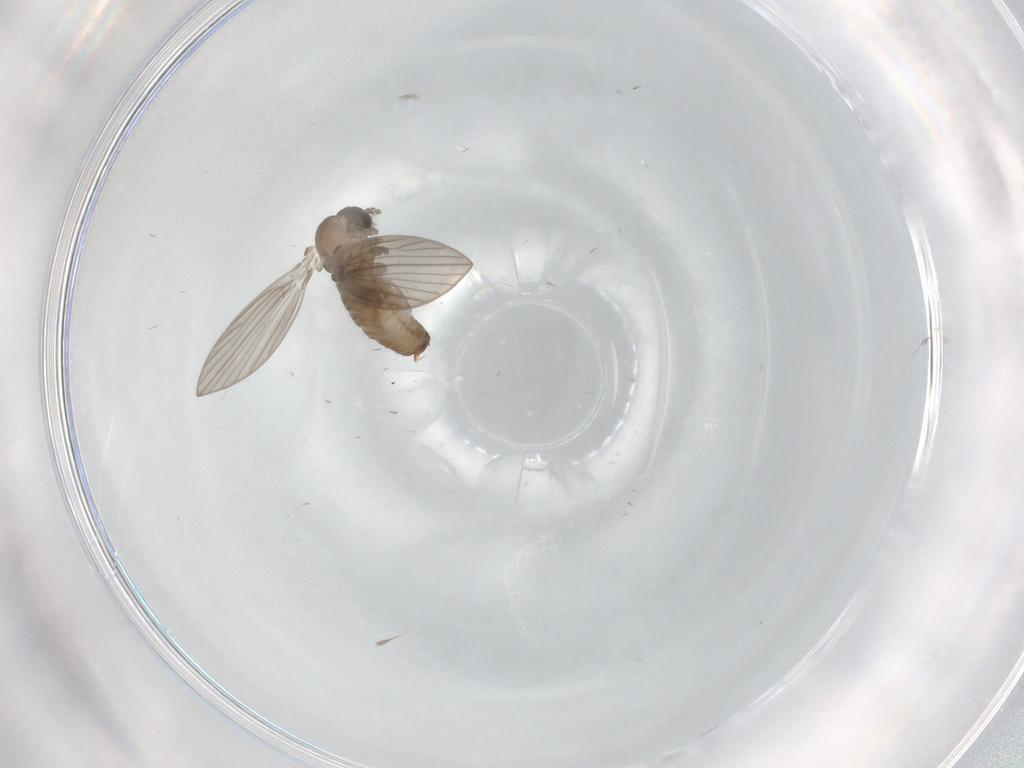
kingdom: Animalia
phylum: Arthropoda
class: Insecta
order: Diptera
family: Psychodidae
